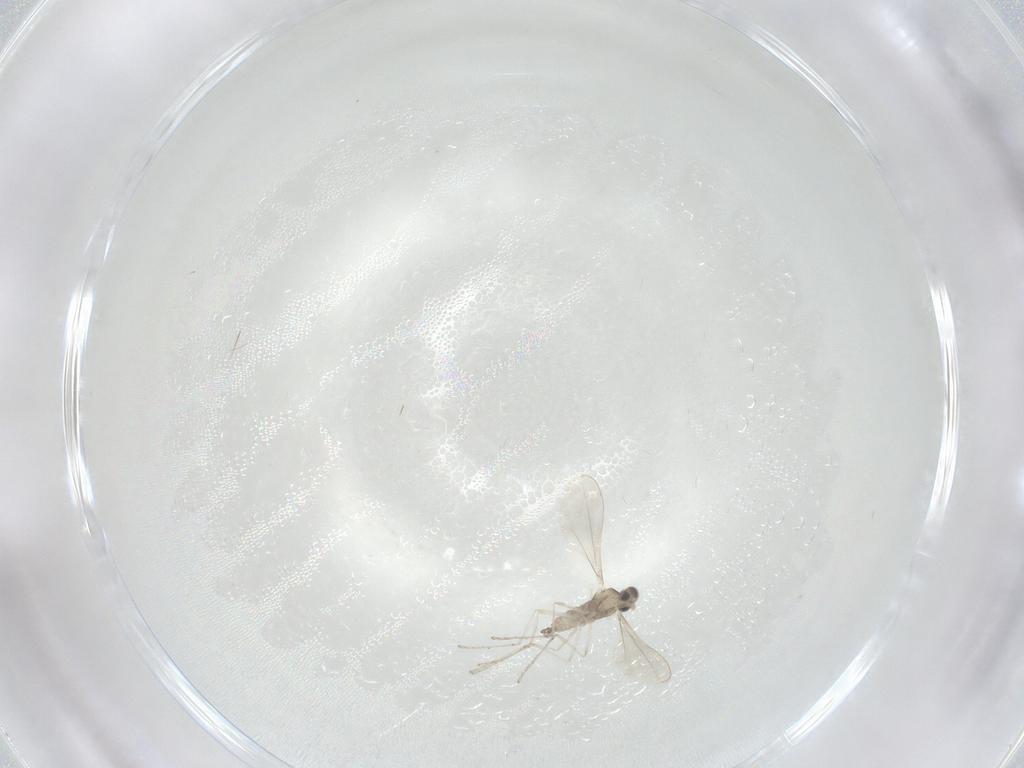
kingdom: Animalia
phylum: Arthropoda
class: Insecta
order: Diptera
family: Cecidomyiidae
